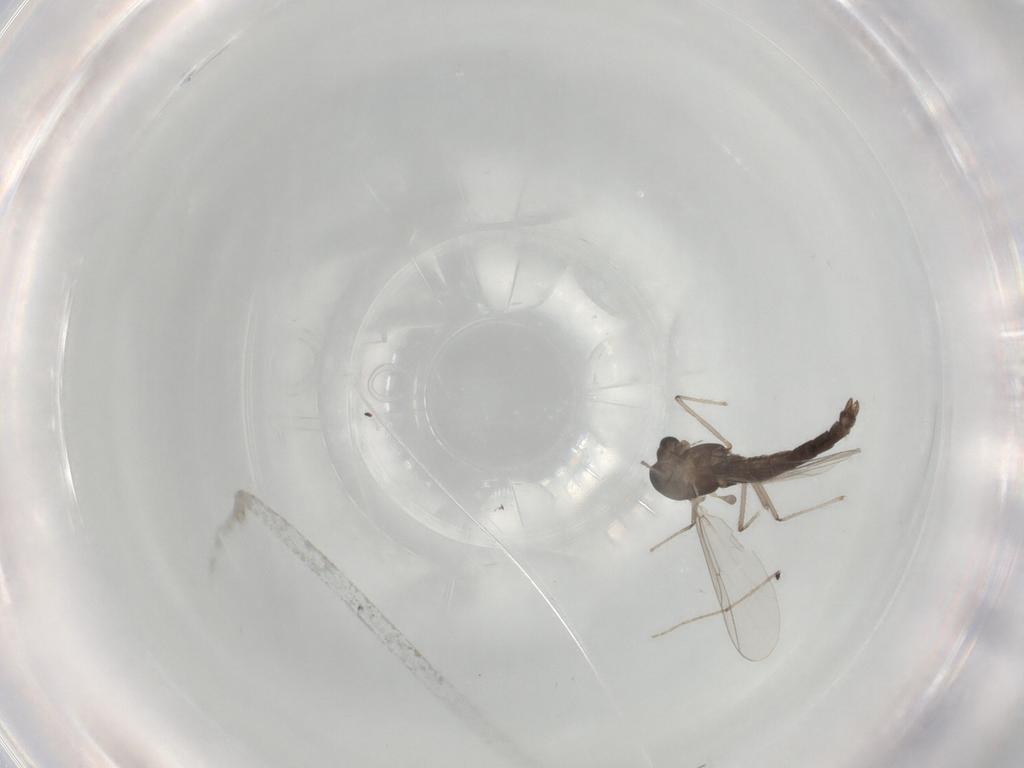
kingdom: Animalia
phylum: Arthropoda
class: Insecta
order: Diptera
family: Chironomidae
